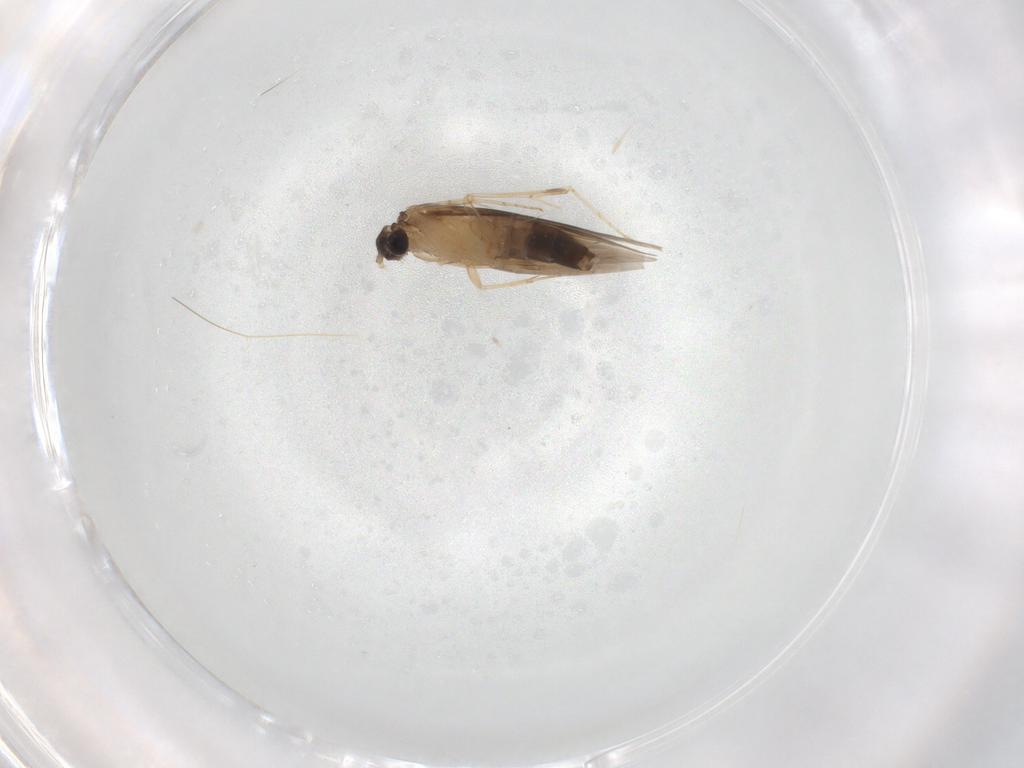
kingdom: Animalia
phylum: Arthropoda
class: Insecta
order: Trichoptera
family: Hydroptilidae
